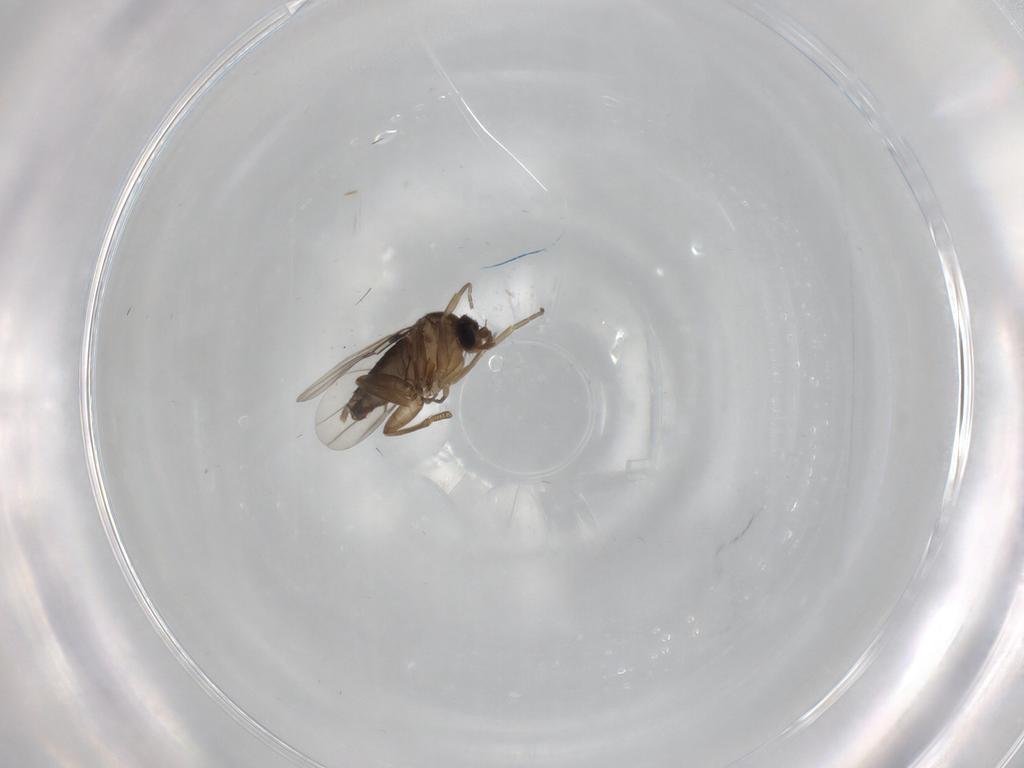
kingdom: Animalia
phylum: Arthropoda
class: Insecta
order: Diptera
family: Phoridae
